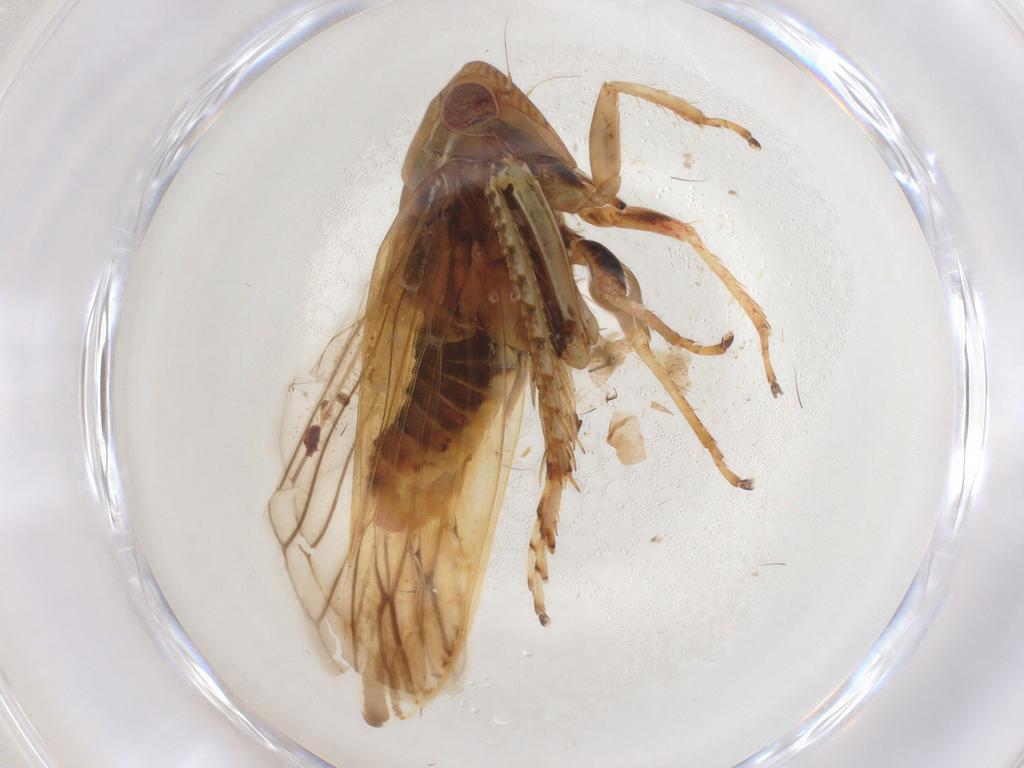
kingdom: Animalia
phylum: Arthropoda
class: Insecta
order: Hemiptera
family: Cicadellidae
